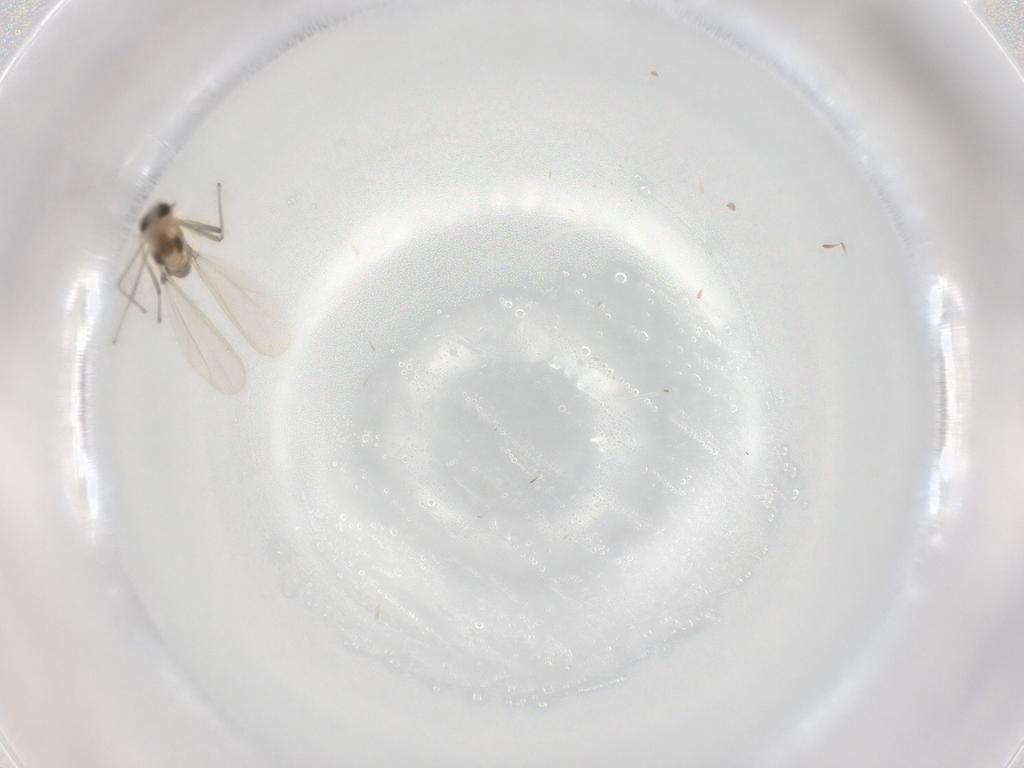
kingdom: Animalia
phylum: Arthropoda
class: Insecta
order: Diptera
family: Chironomidae
